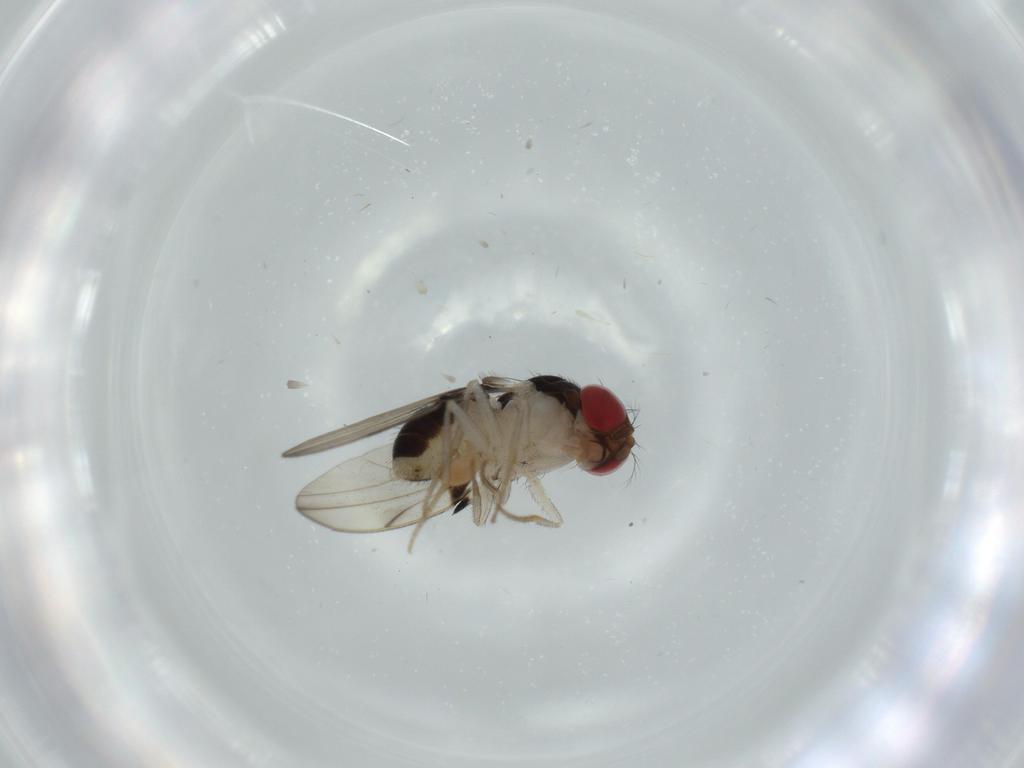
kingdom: Animalia
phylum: Arthropoda
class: Insecta
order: Diptera
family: Drosophilidae
